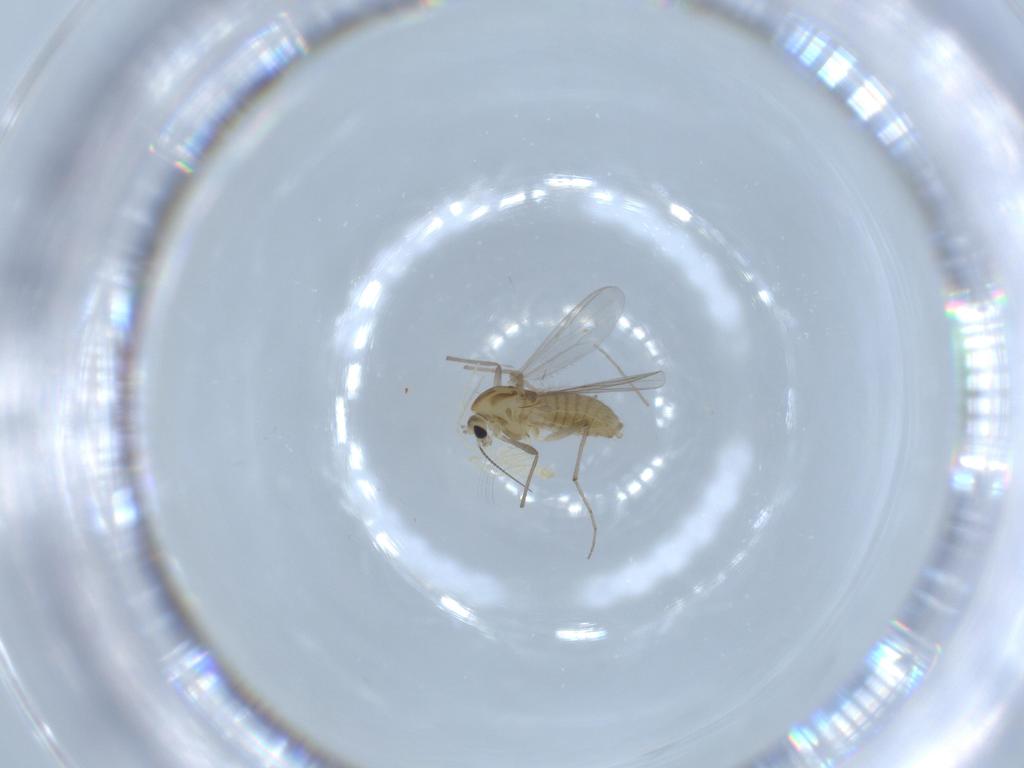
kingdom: Animalia
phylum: Arthropoda
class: Insecta
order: Diptera
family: Chironomidae
